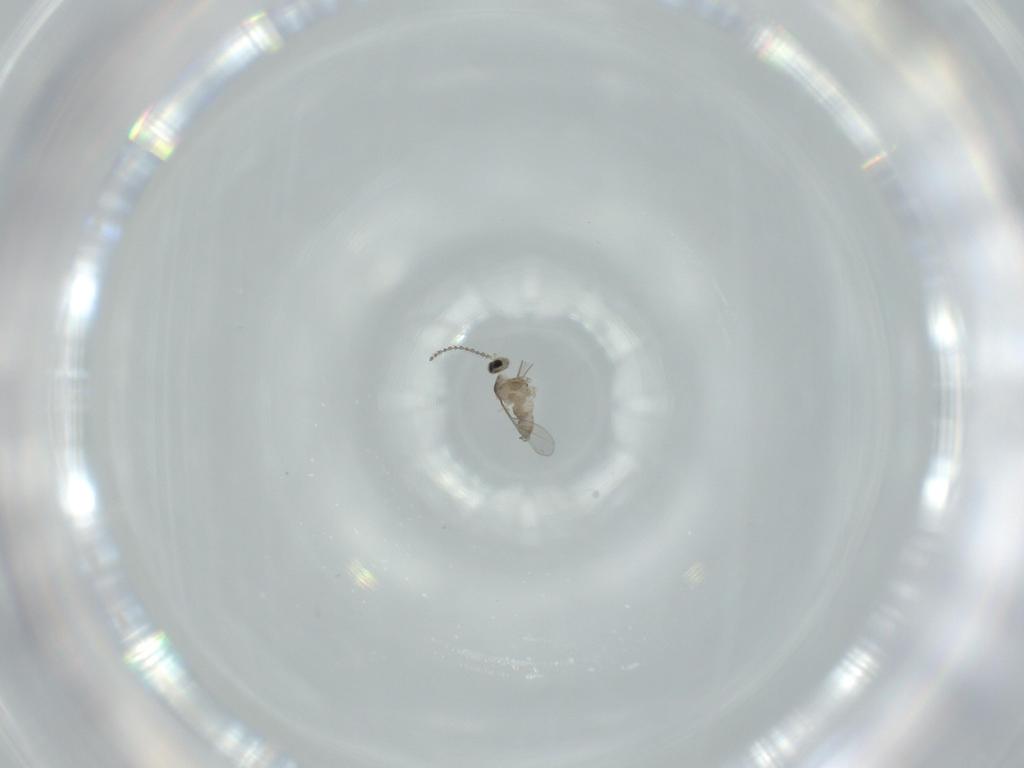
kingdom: Animalia
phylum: Arthropoda
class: Insecta
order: Diptera
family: Cecidomyiidae
